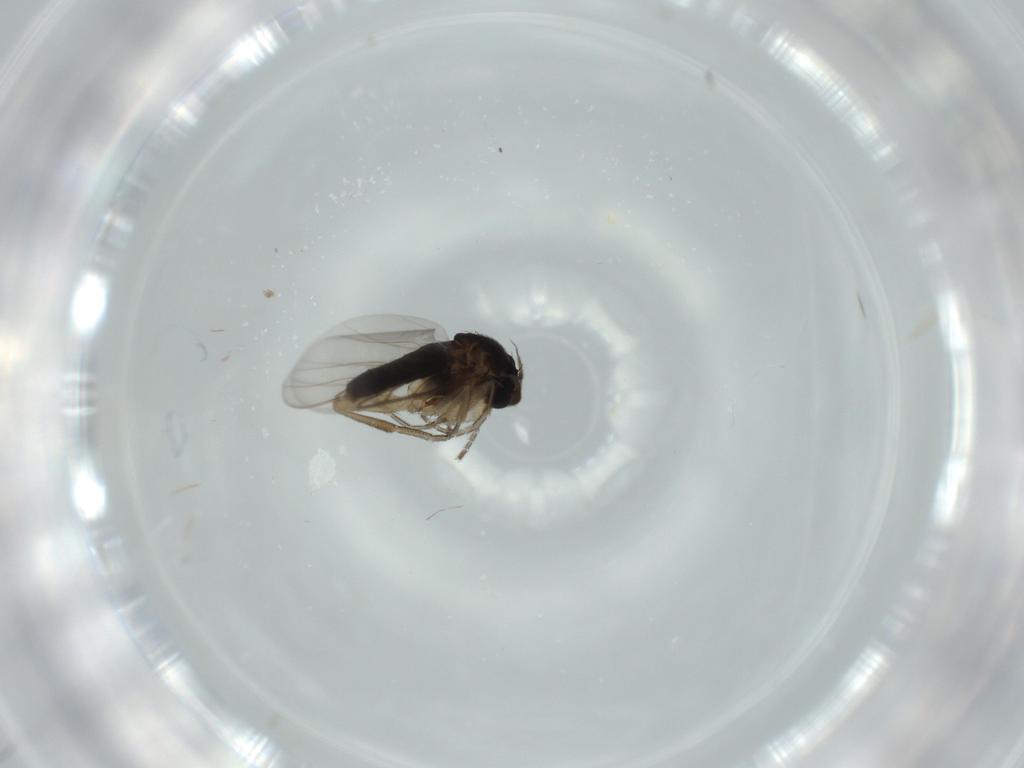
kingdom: Animalia
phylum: Arthropoda
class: Insecta
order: Diptera
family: Phoridae
